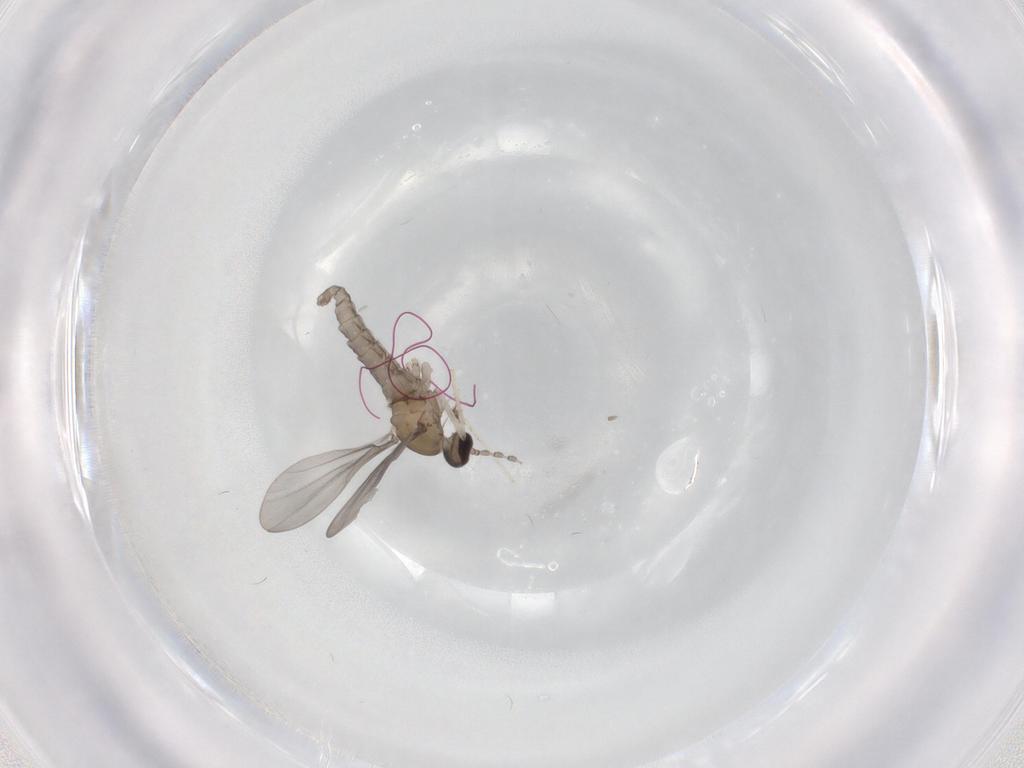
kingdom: Animalia
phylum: Arthropoda
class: Insecta
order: Diptera
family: Sciaridae
